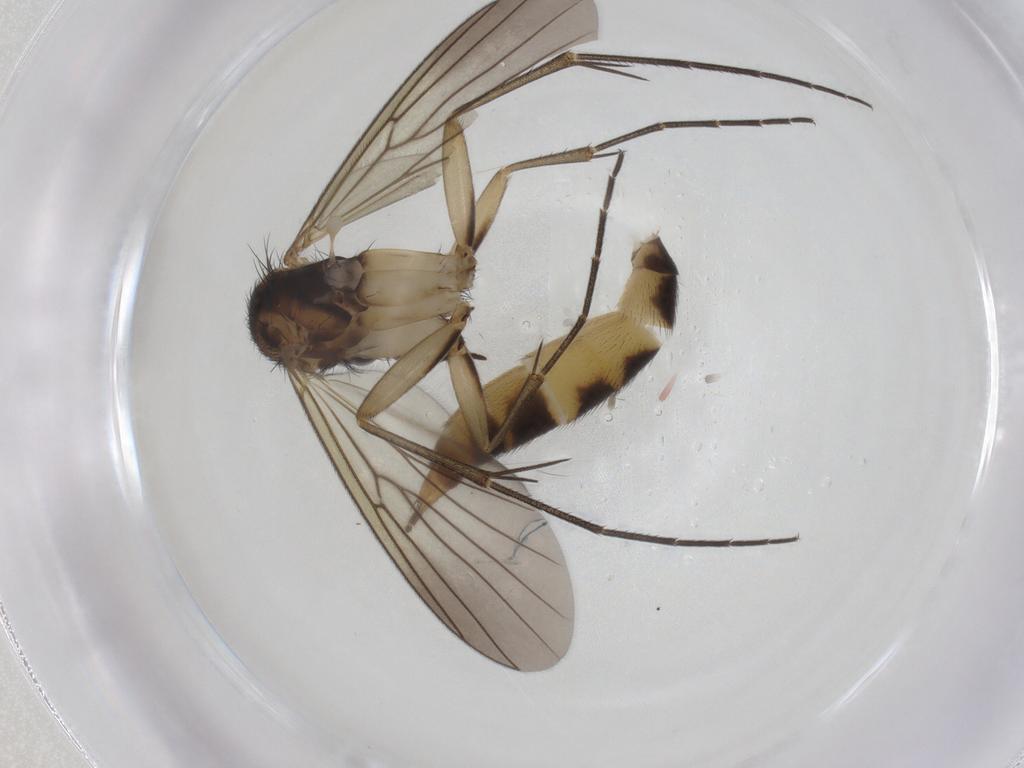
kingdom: Animalia
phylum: Arthropoda
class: Insecta
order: Diptera
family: Mycetophilidae
